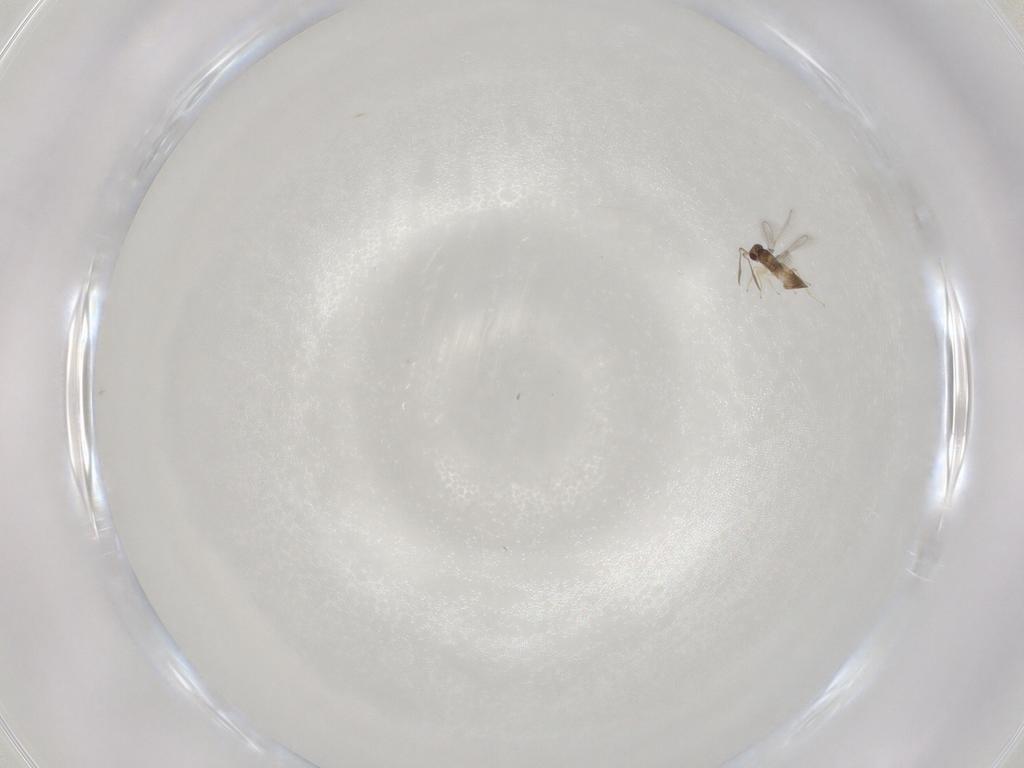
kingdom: Animalia
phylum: Arthropoda
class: Insecta
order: Hymenoptera
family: Mymaridae
